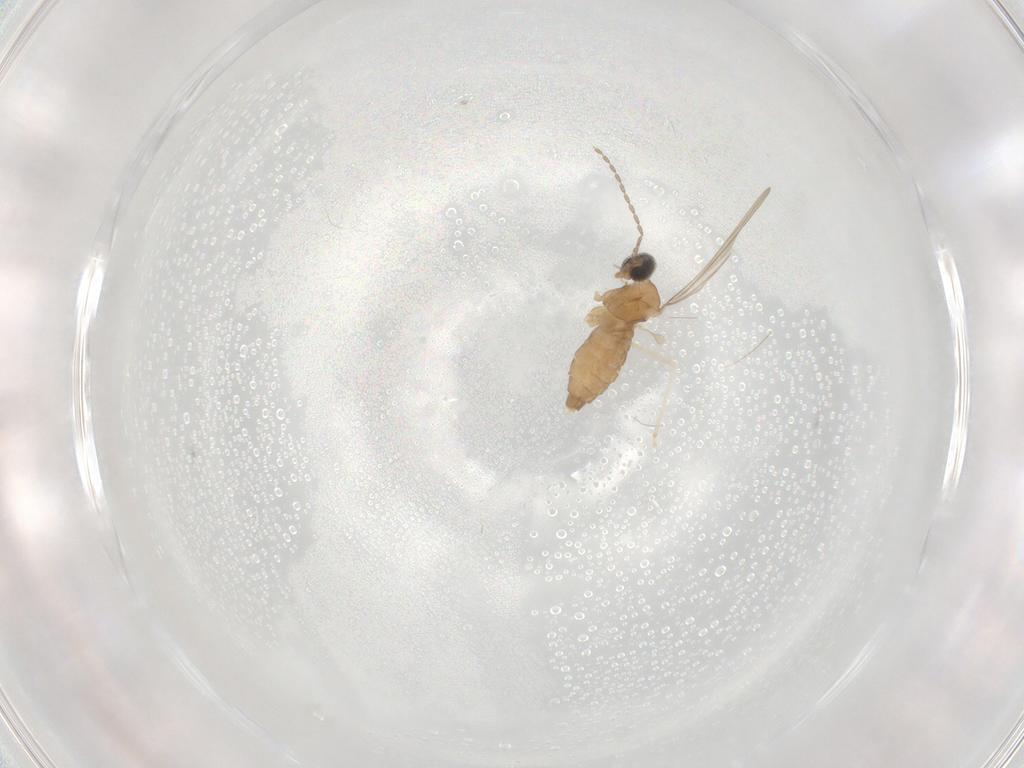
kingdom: Animalia
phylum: Arthropoda
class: Insecta
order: Diptera
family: Cecidomyiidae
